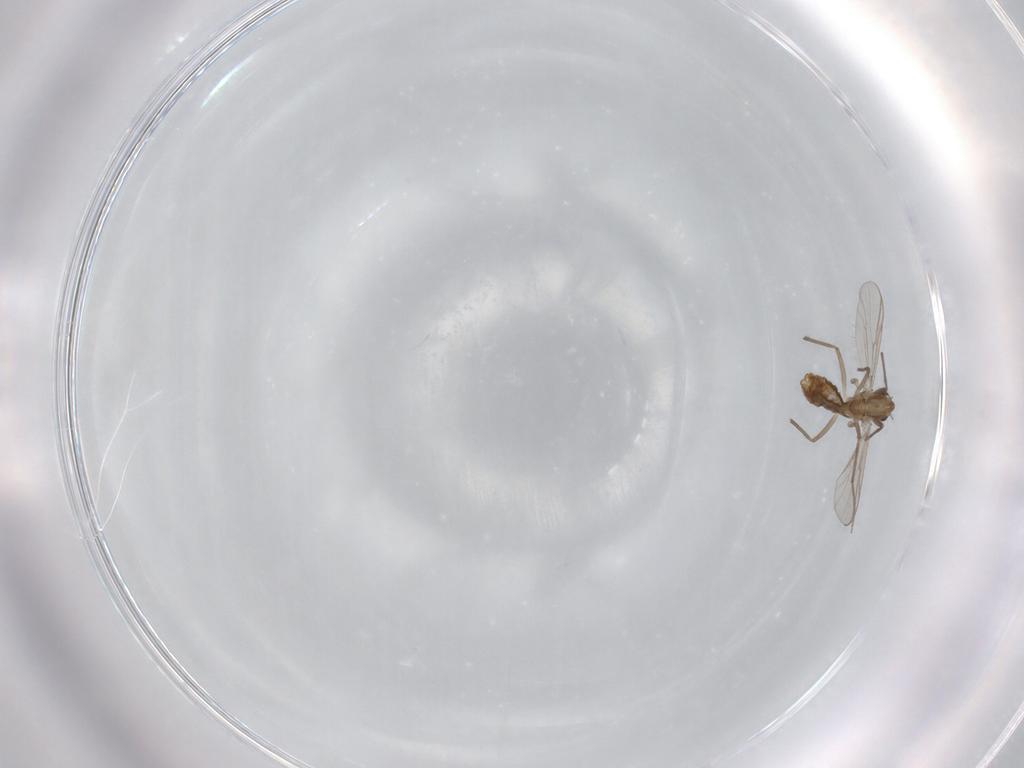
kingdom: Animalia
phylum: Arthropoda
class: Insecta
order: Diptera
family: Chironomidae
